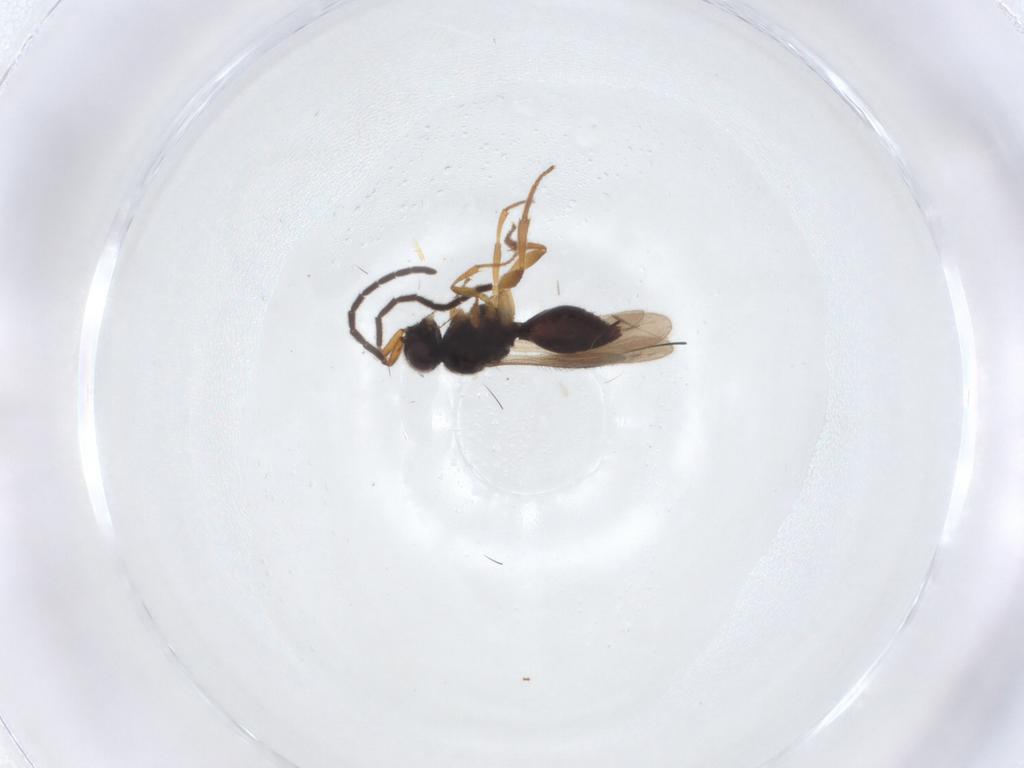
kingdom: Animalia
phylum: Arthropoda
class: Insecta
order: Hymenoptera
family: Megaspilidae
